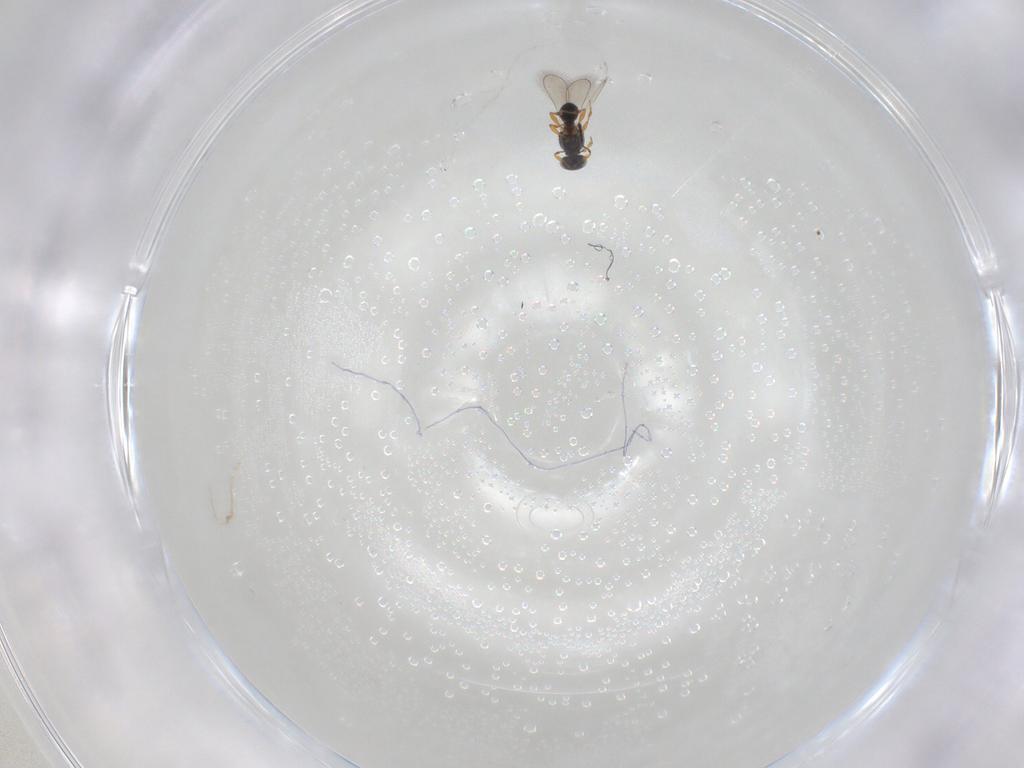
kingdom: Animalia
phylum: Arthropoda
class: Insecta
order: Hymenoptera
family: Platygastridae
